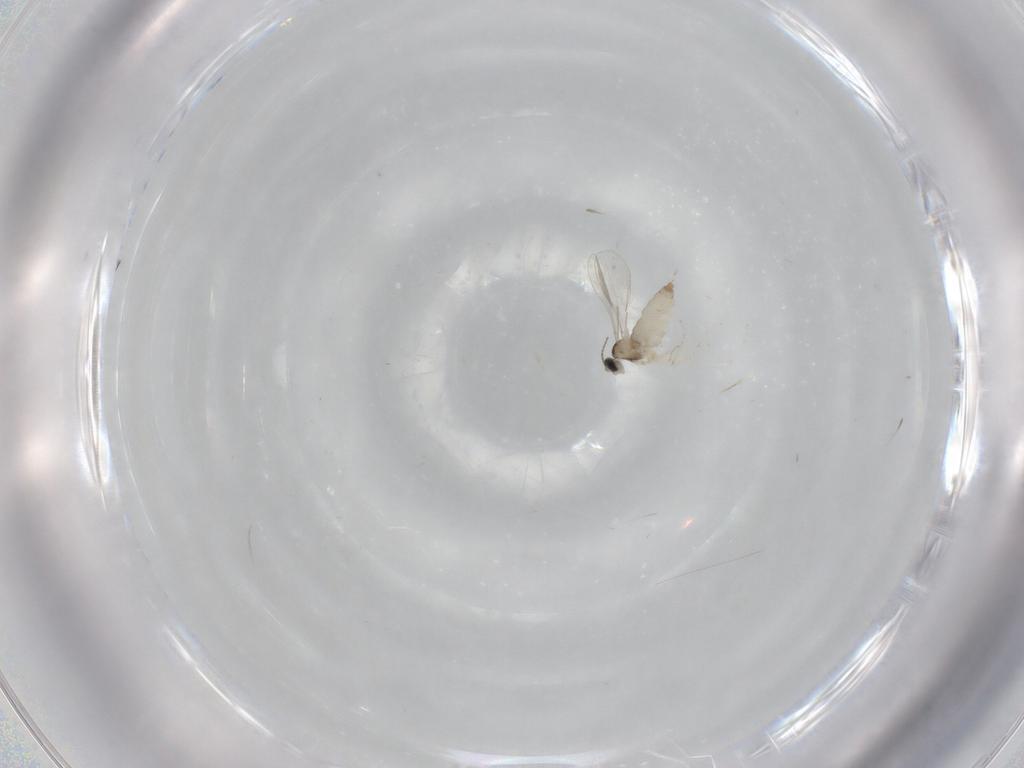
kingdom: Animalia
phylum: Arthropoda
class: Insecta
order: Diptera
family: Chironomidae
